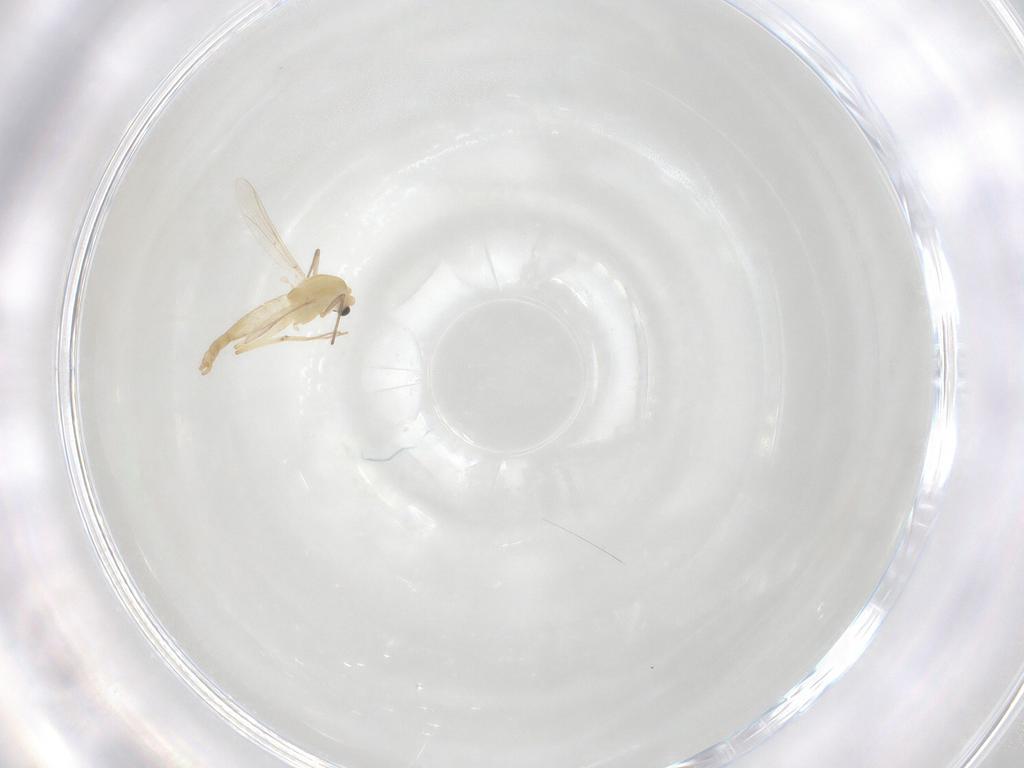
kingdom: Animalia
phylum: Arthropoda
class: Insecta
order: Diptera
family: Chironomidae
